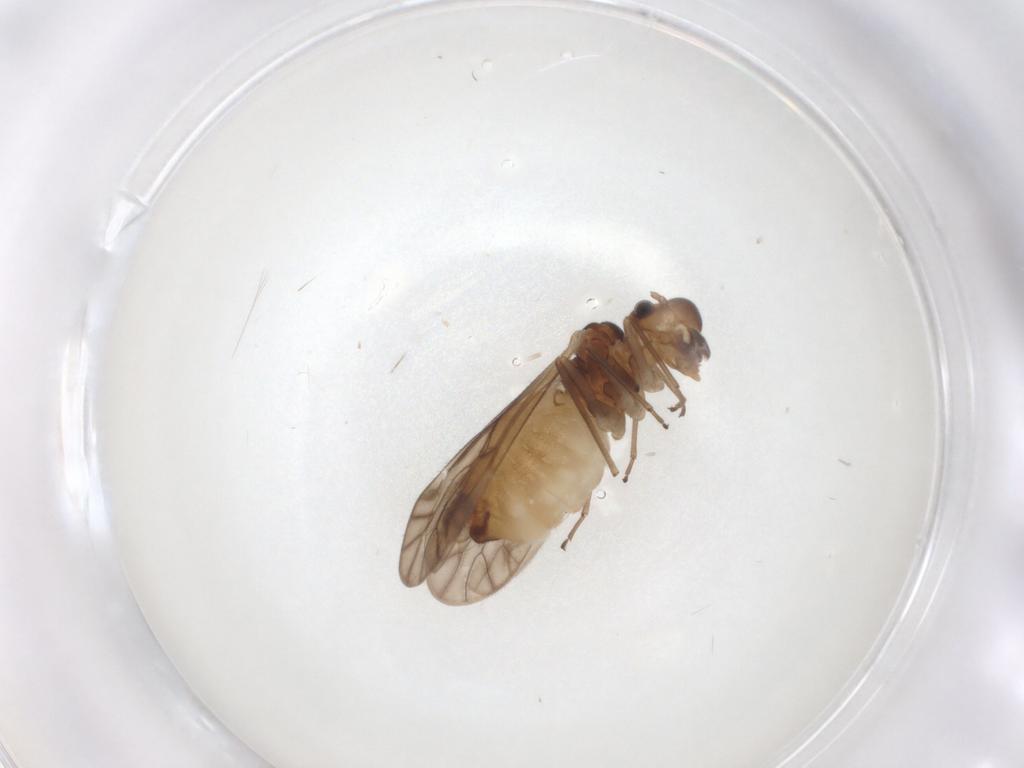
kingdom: Animalia
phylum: Arthropoda
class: Insecta
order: Psocodea
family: Philotarsidae
